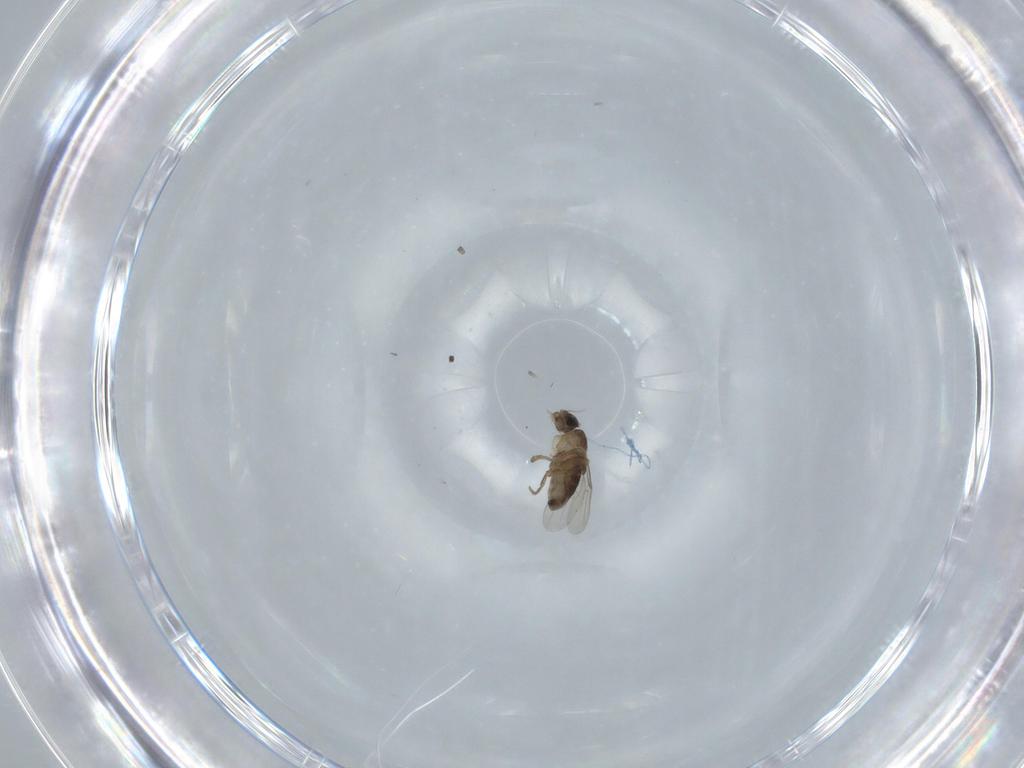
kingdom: Animalia
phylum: Arthropoda
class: Insecta
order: Diptera
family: Phoridae
